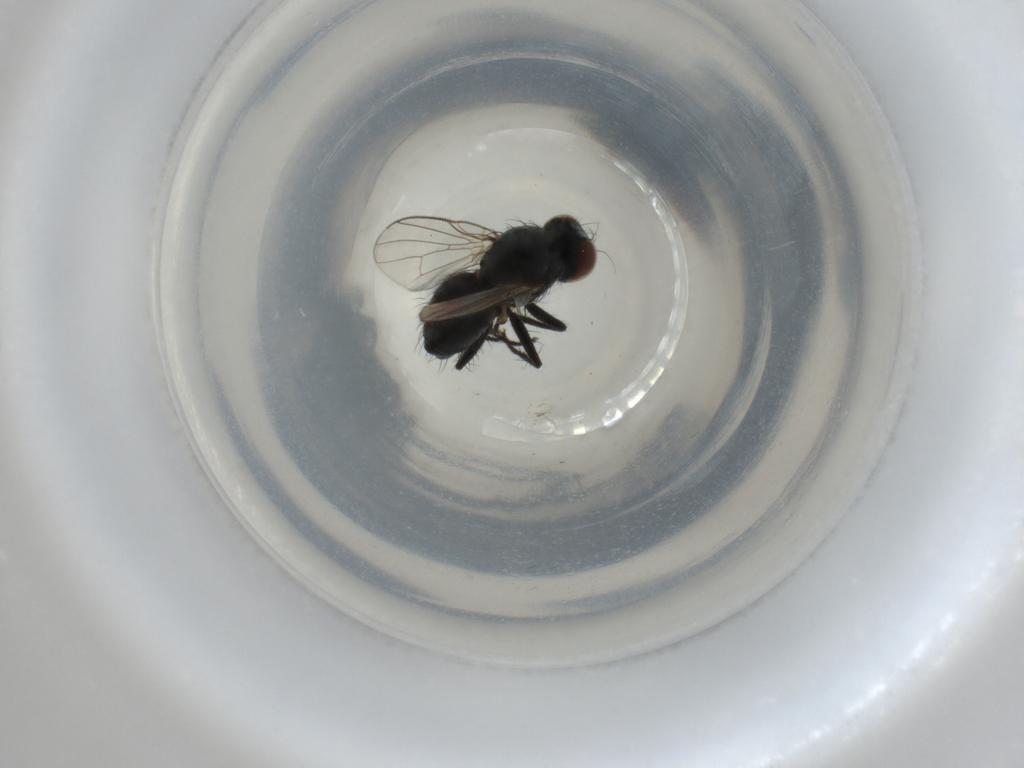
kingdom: Animalia
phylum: Arthropoda
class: Insecta
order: Diptera
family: Muscidae
